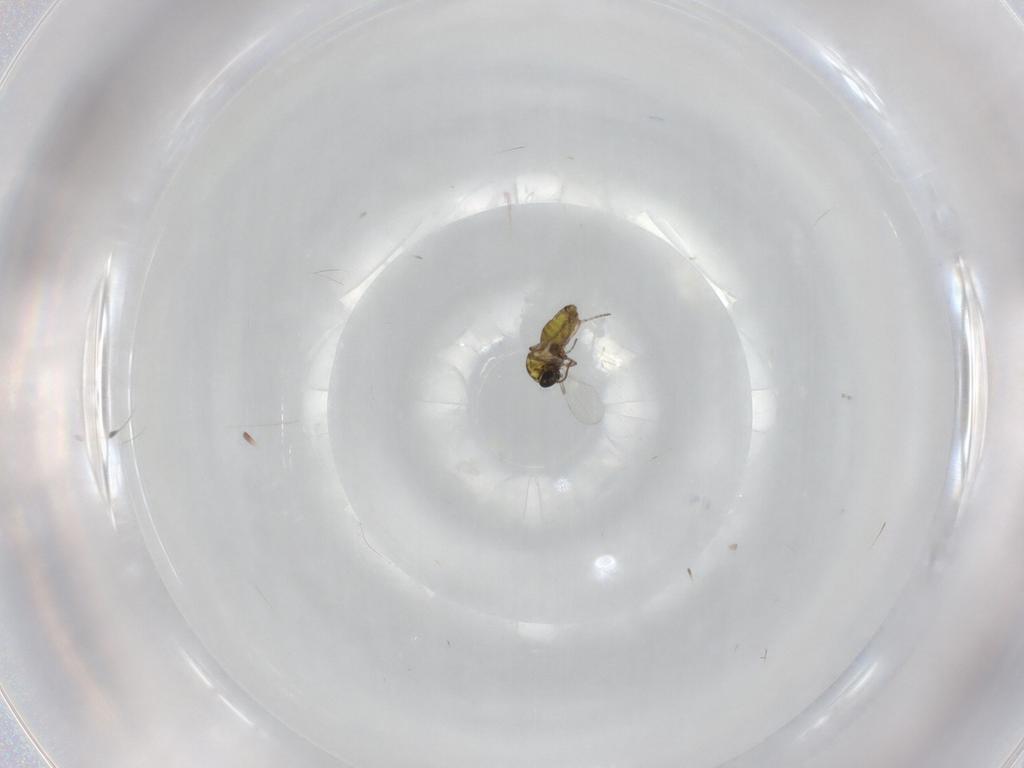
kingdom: Animalia
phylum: Arthropoda
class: Insecta
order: Diptera
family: Ceratopogonidae
